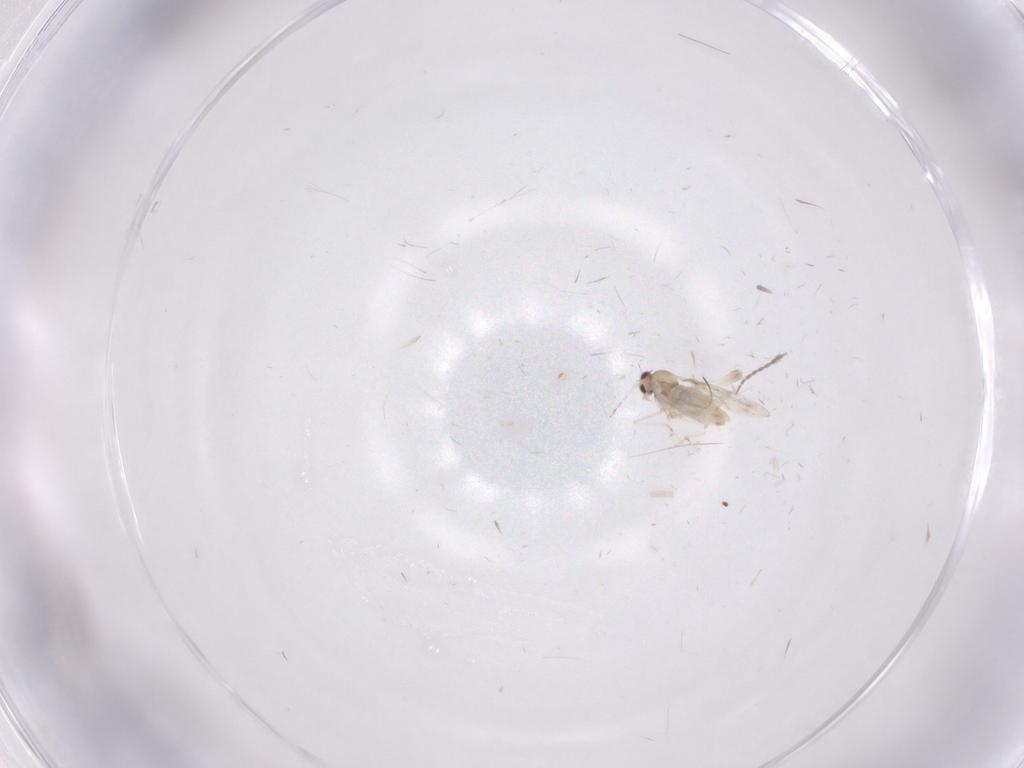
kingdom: Animalia
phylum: Arthropoda
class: Insecta
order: Diptera
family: Cecidomyiidae
